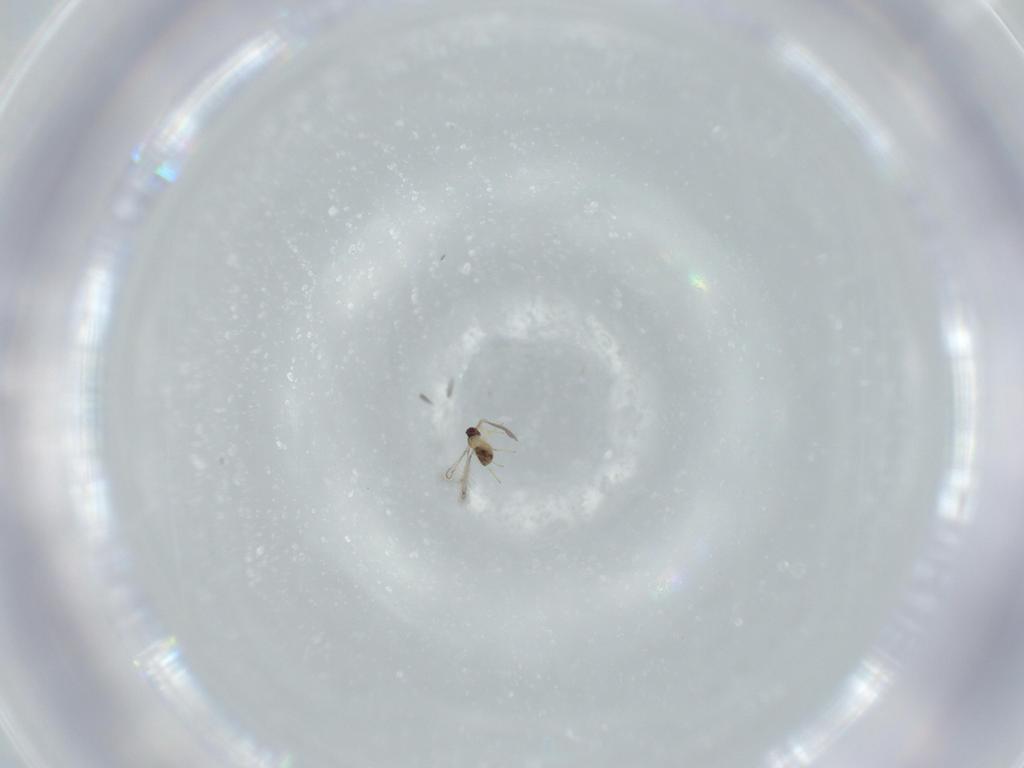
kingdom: Animalia
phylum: Arthropoda
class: Insecta
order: Hymenoptera
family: Mymaridae
